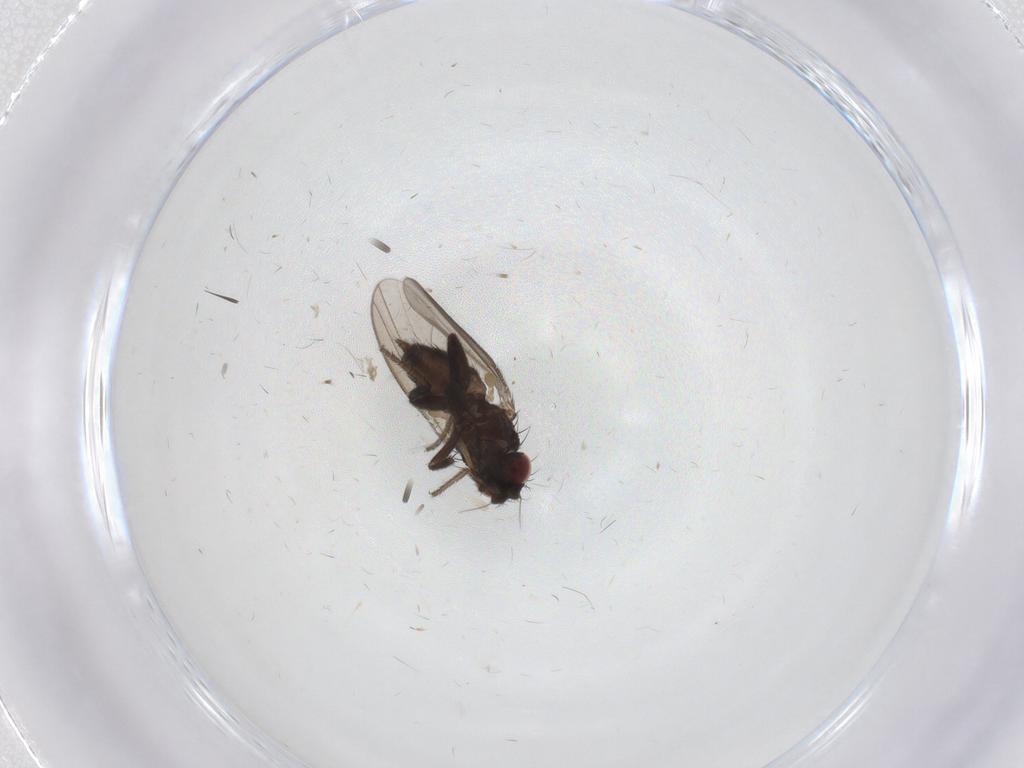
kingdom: Animalia
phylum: Arthropoda
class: Insecta
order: Diptera
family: Milichiidae
